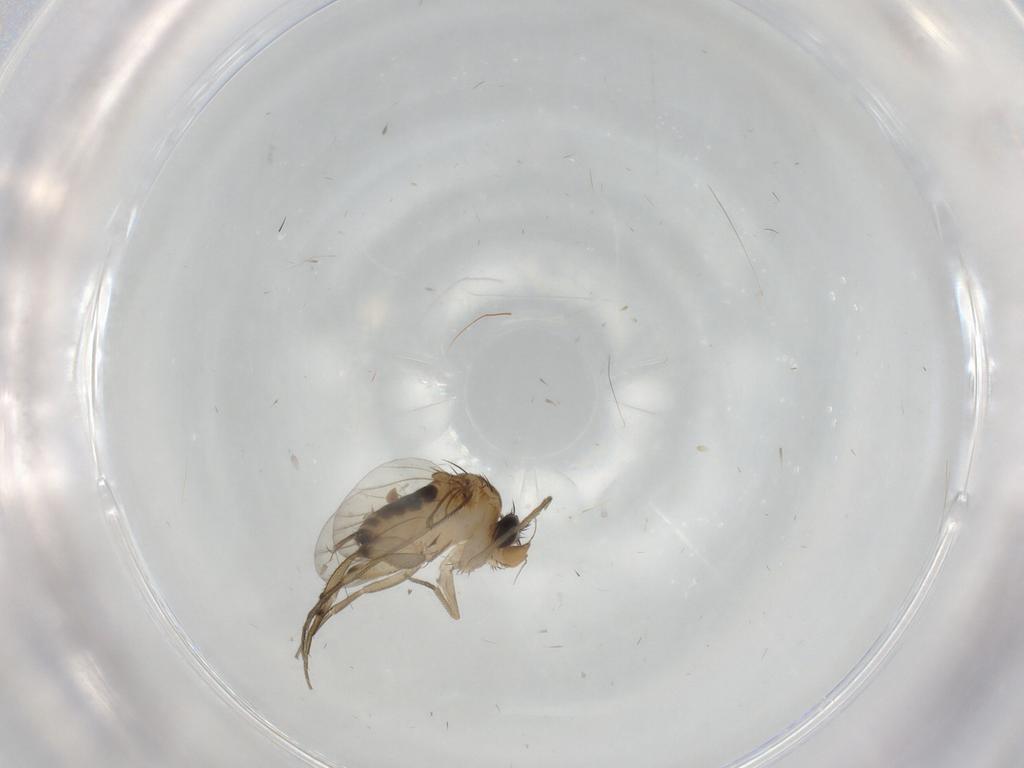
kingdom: Animalia
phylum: Arthropoda
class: Insecta
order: Diptera
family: Phoridae
